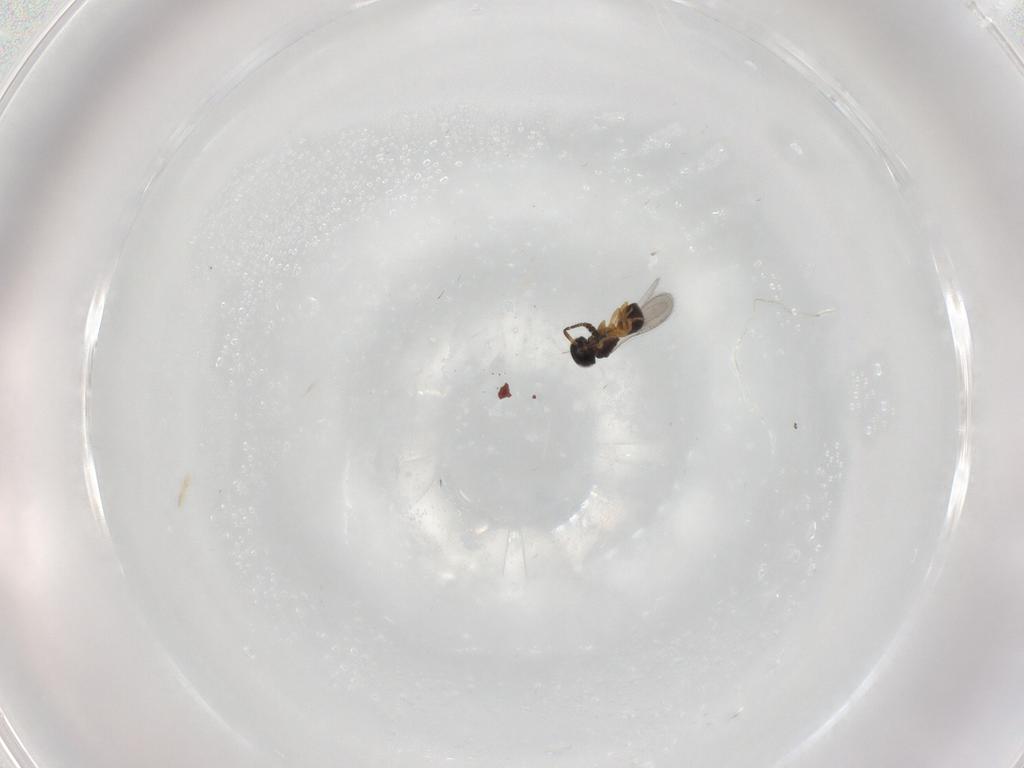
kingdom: Animalia
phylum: Arthropoda
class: Insecta
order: Hymenoptera
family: Scelionidae
